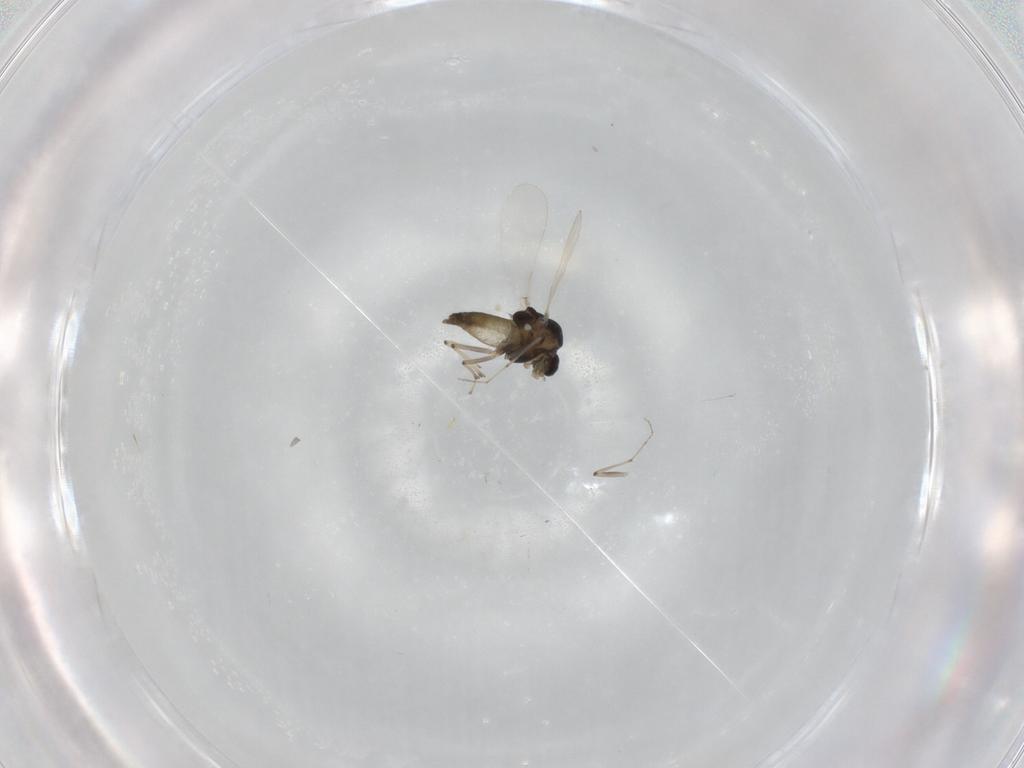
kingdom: Animalia
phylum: Arthropoda
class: Insecta
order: Diptera
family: Chironomidae
